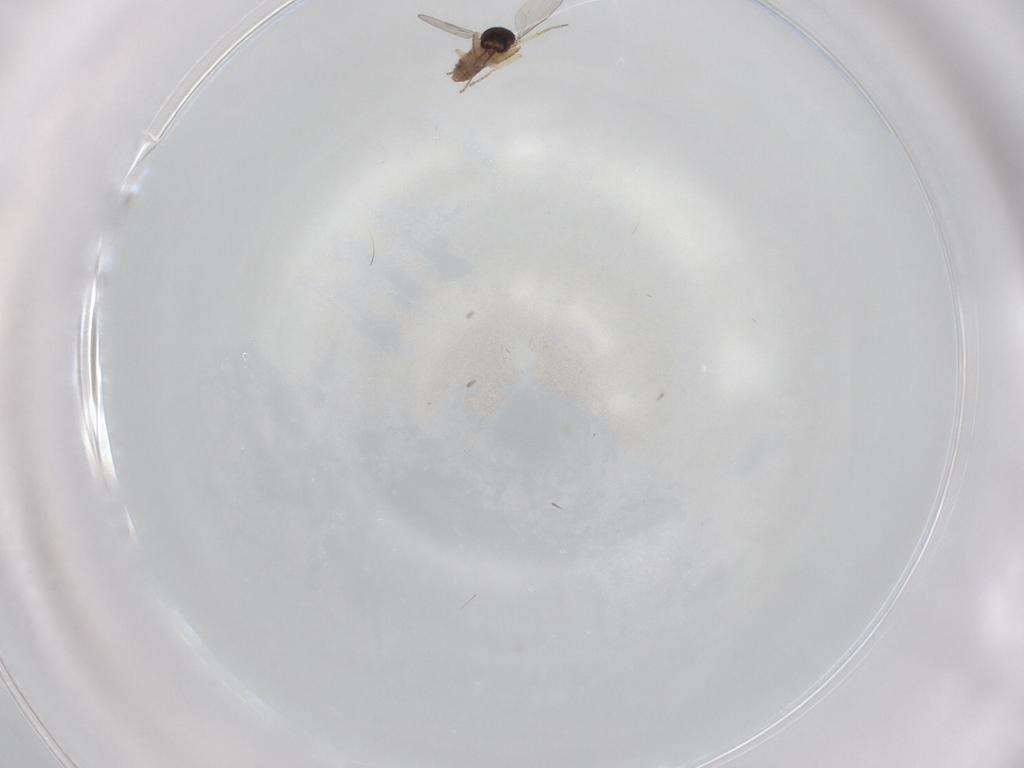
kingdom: Animalia
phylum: Arthropoda
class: Insecta
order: Diptera
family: Ceratopogonidae
